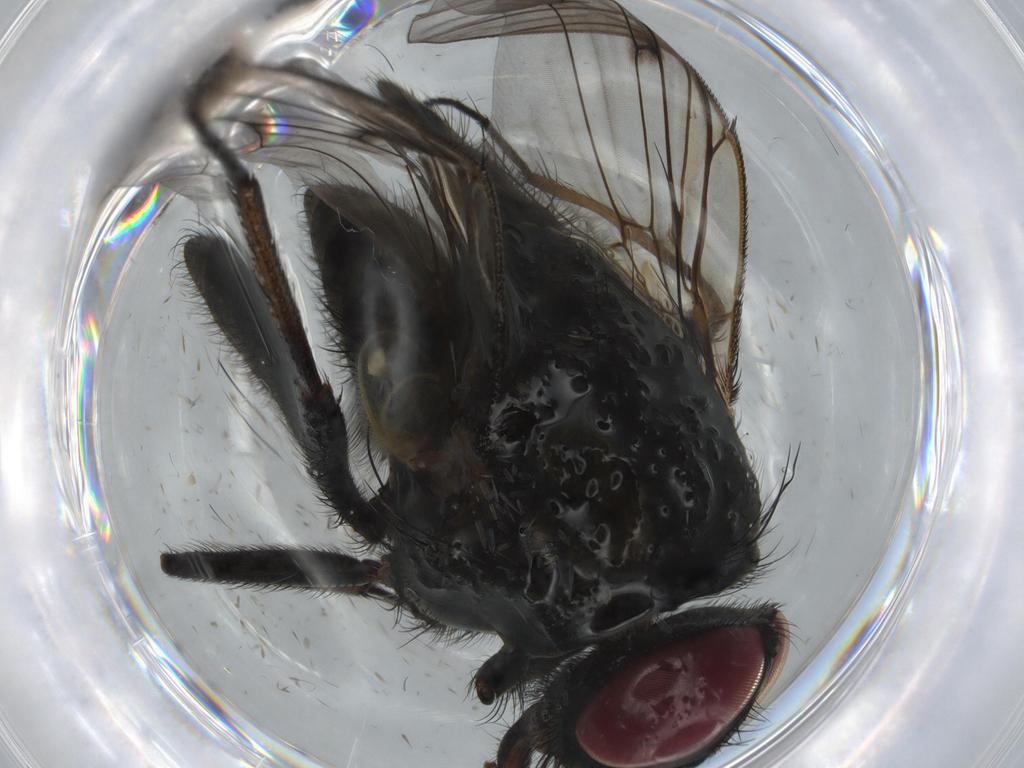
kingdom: Animalia
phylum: Arthropoda
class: Insecta
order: Diptera
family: Muscidae
